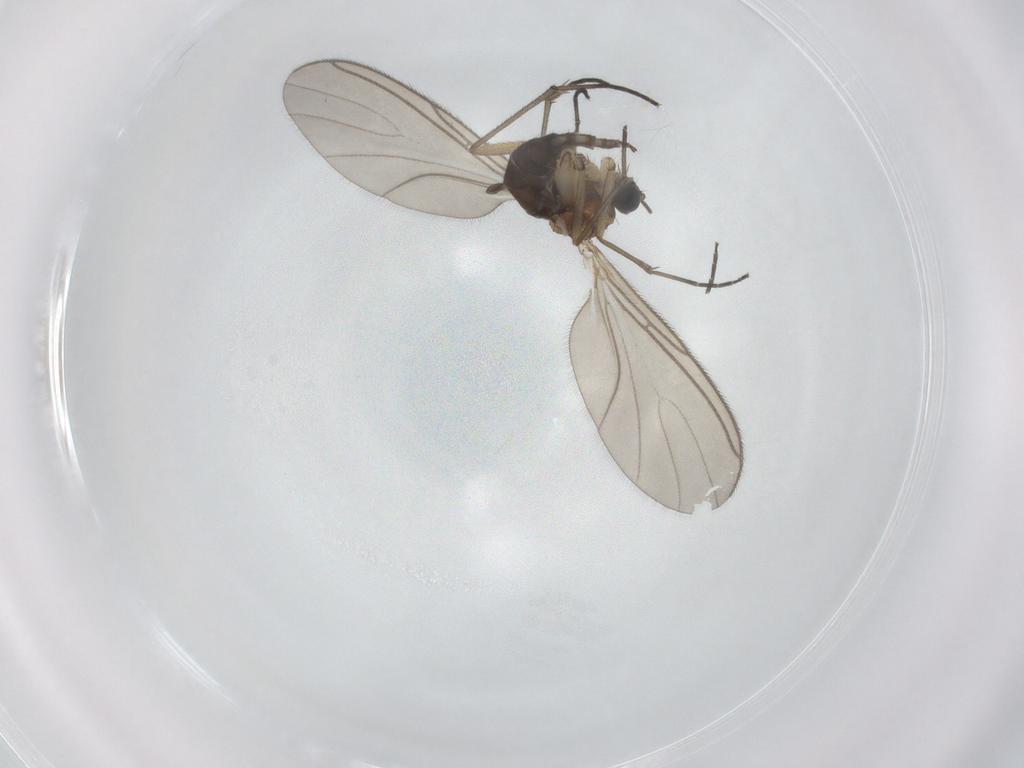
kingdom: Animalia
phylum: Arthropoda
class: Insecta
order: Diptera
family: Sciaridae
